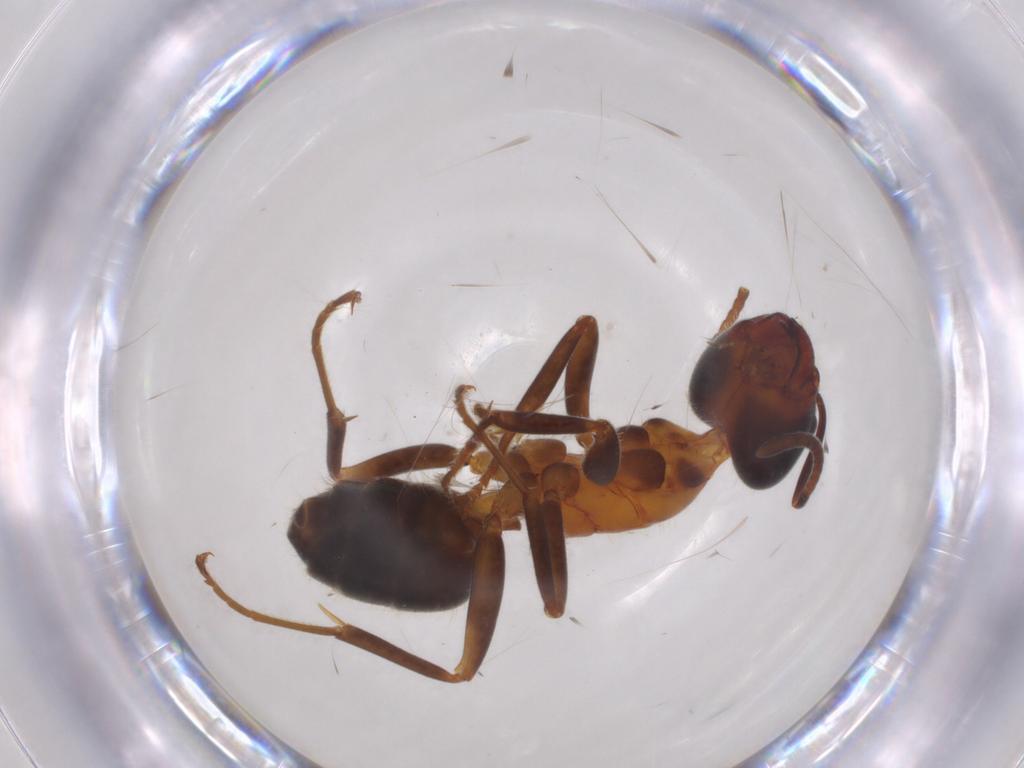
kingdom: Animalia
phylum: Arthropoda
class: Insecta
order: Hymenoptera
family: Formicidae
